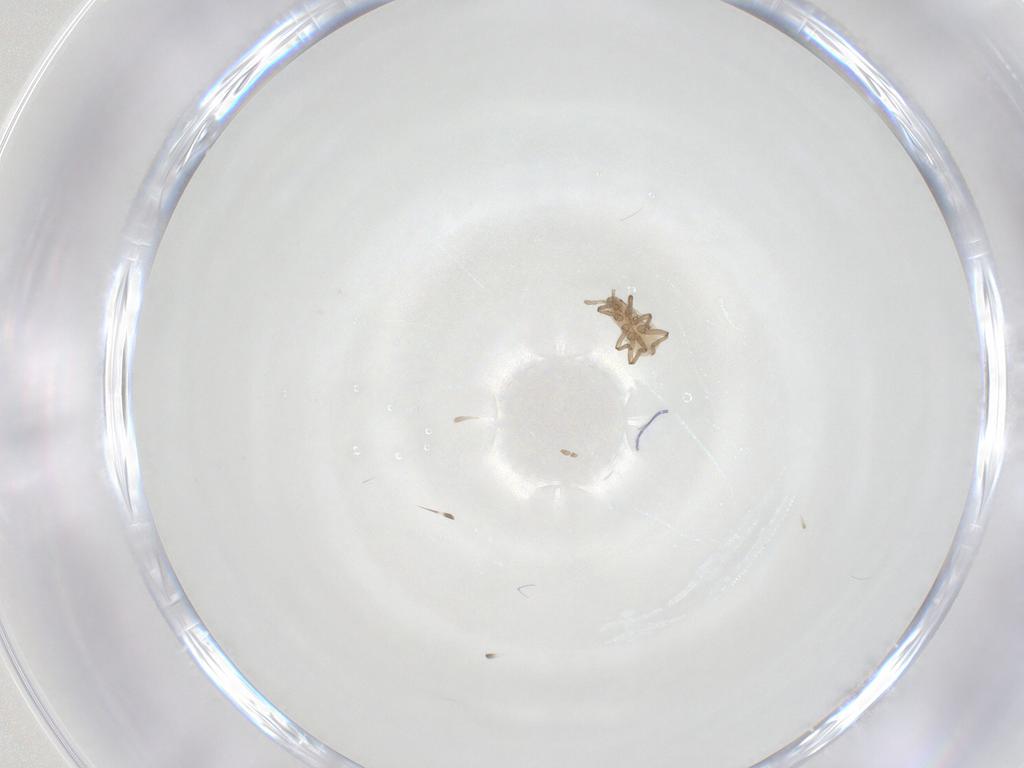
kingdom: Animalia
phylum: Arthropoda
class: Insecta
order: Hemiptera
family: Aphididae
